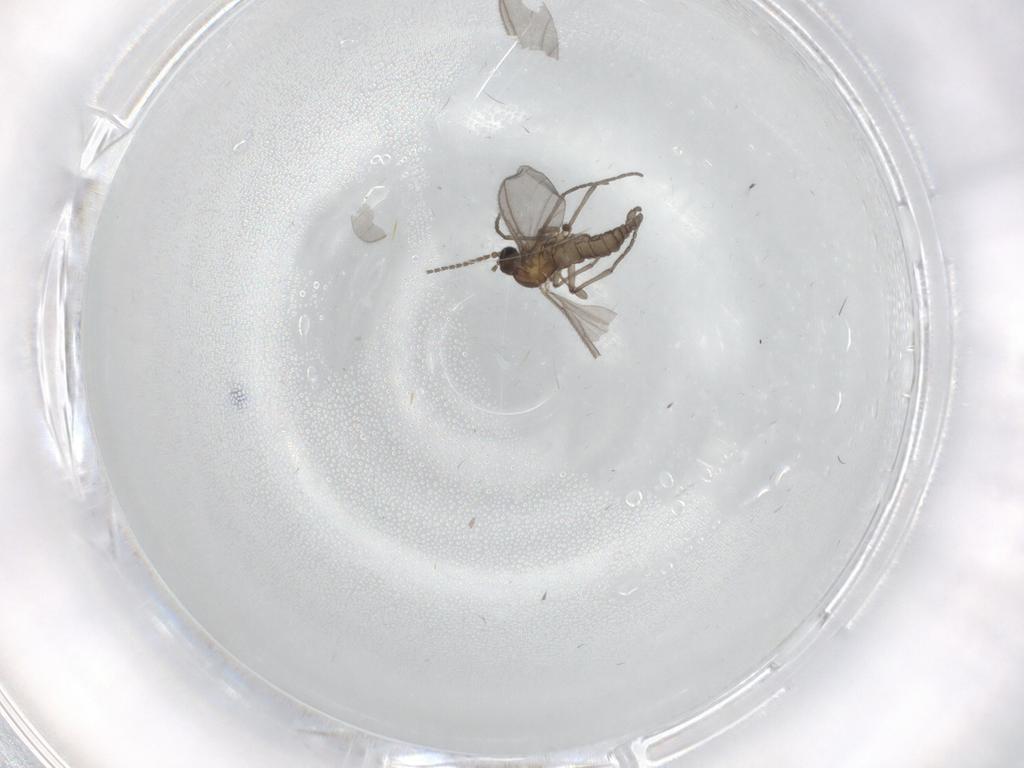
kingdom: Animalia
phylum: Arthropoda
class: Insecta
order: Diptera
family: Sciaridae
